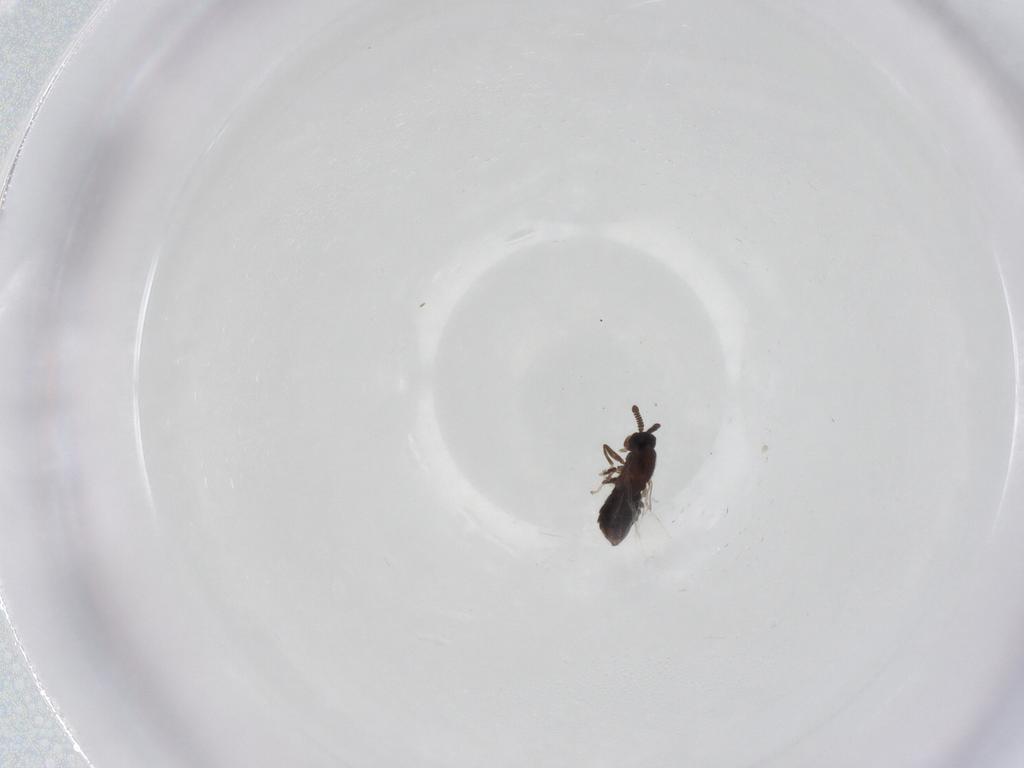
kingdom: Animalia
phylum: Arthropoda
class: Insecta
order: Diptera
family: Scatopsidae
